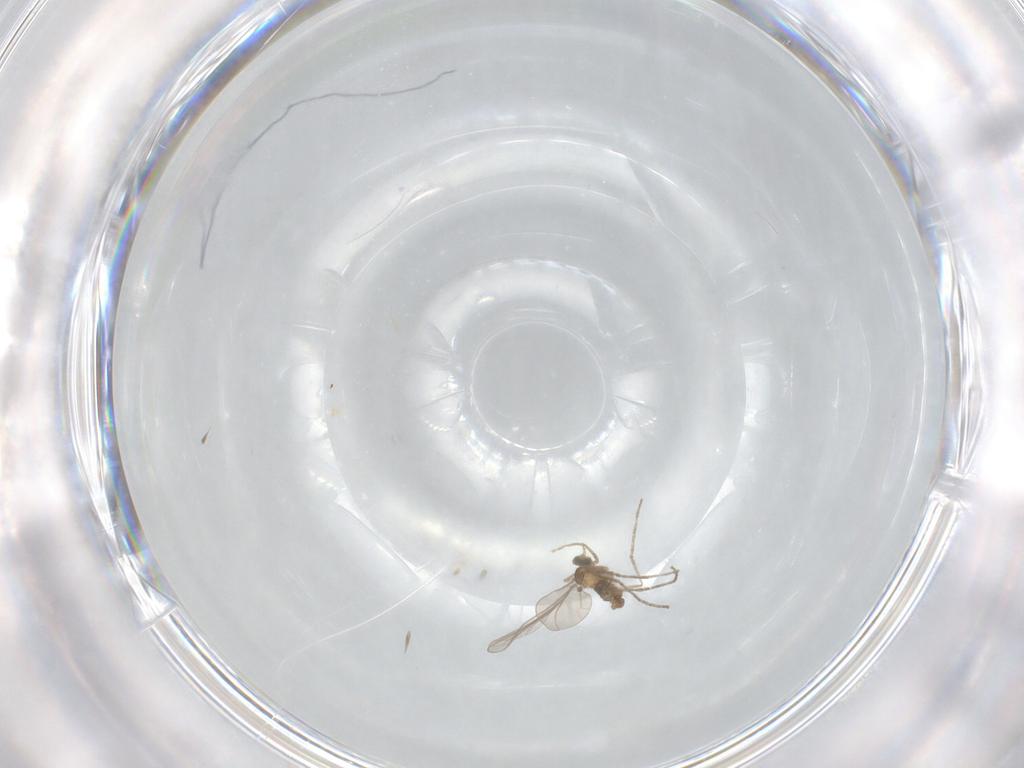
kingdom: Animalia
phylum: Arthropoda
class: Insecta
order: Diptera
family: Cecidomyiidae
